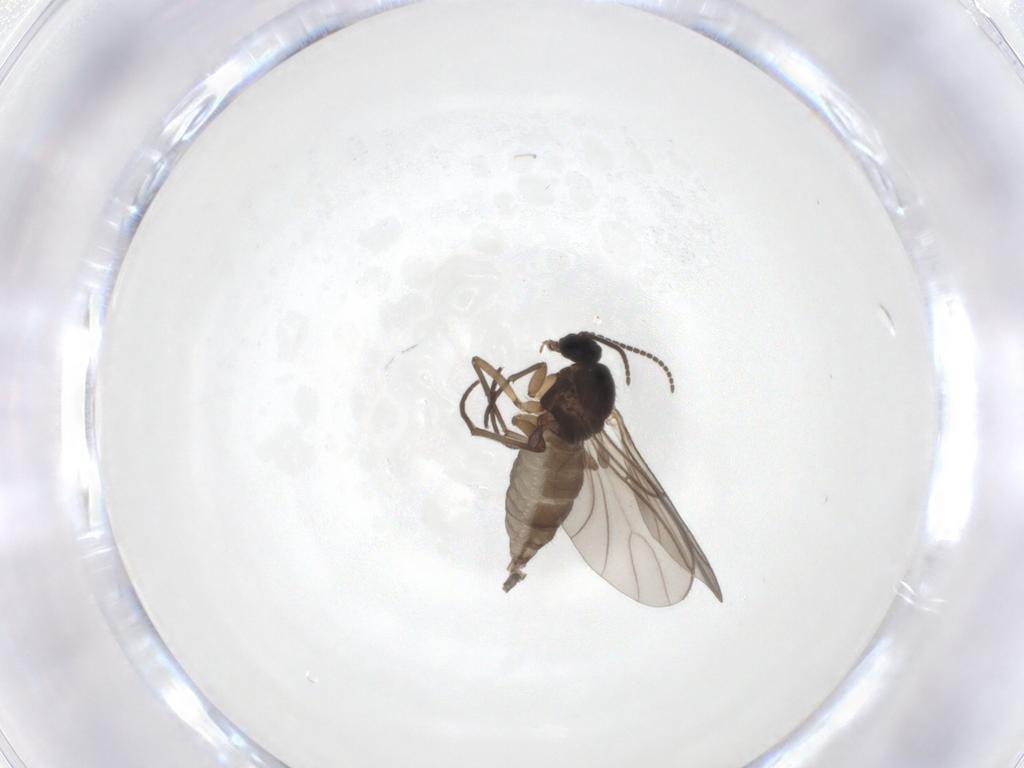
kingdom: Animalia
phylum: Arthropoda
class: Insecta
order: Diptera
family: Sciaridae
